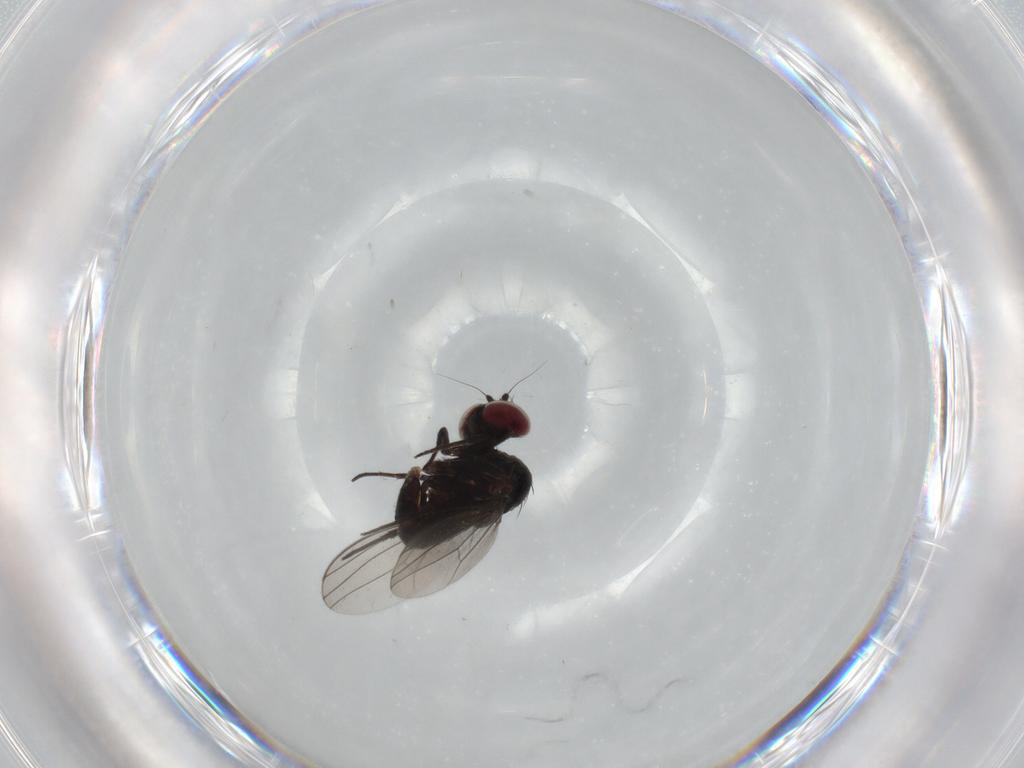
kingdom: Animalia
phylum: Arthropoda
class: Insecta
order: Diptera
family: Dolichopodidae
